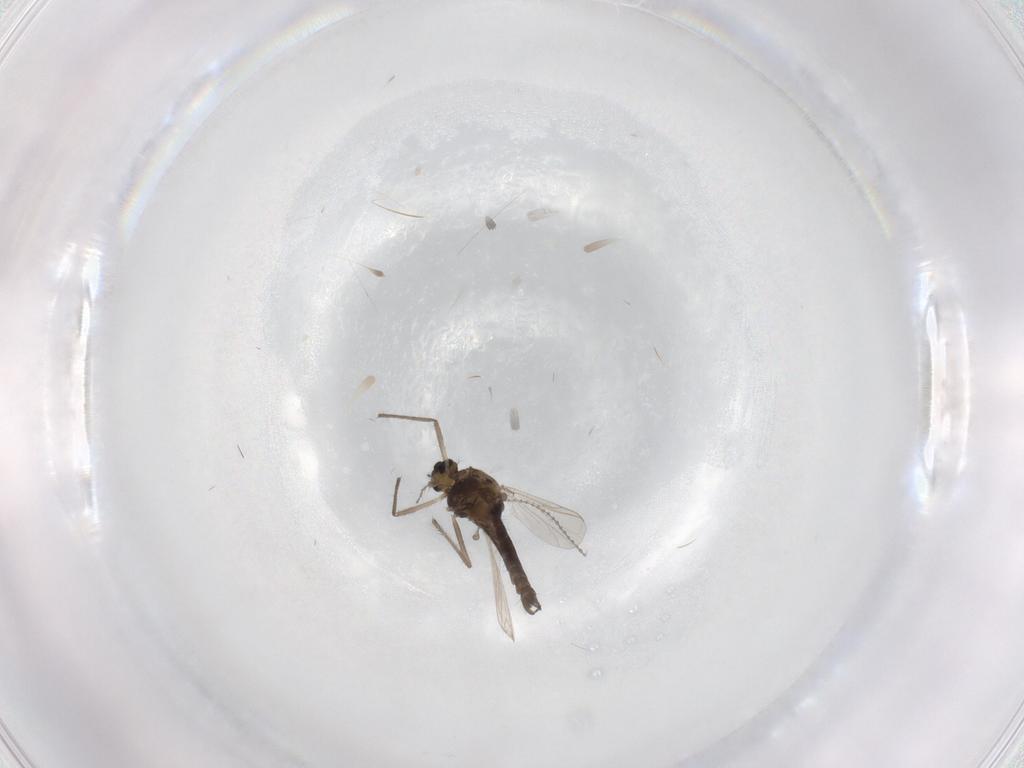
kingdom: Animalia
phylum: Arthropoda
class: Insecta
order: Diptera
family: Chironomidae
